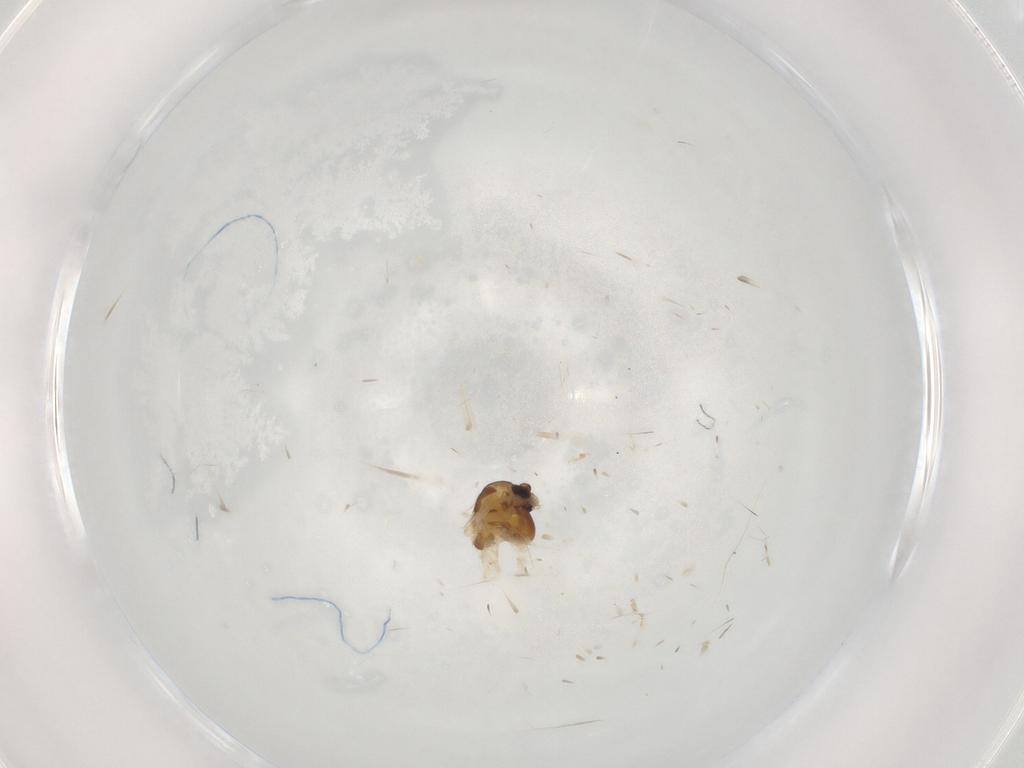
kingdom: Animalia
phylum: Arthropoda
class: Insecta
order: Diptera
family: Chironomidae
